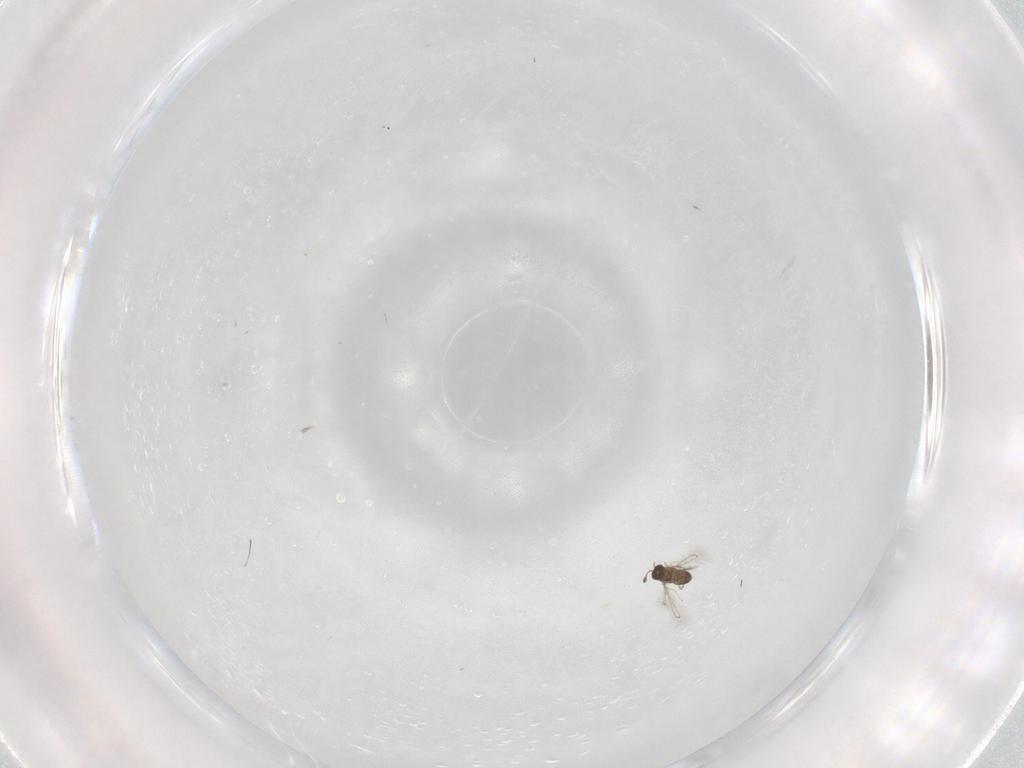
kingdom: Animalia
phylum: Arthropoda
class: Insecta
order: Hymenoptera
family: Mymaridae
